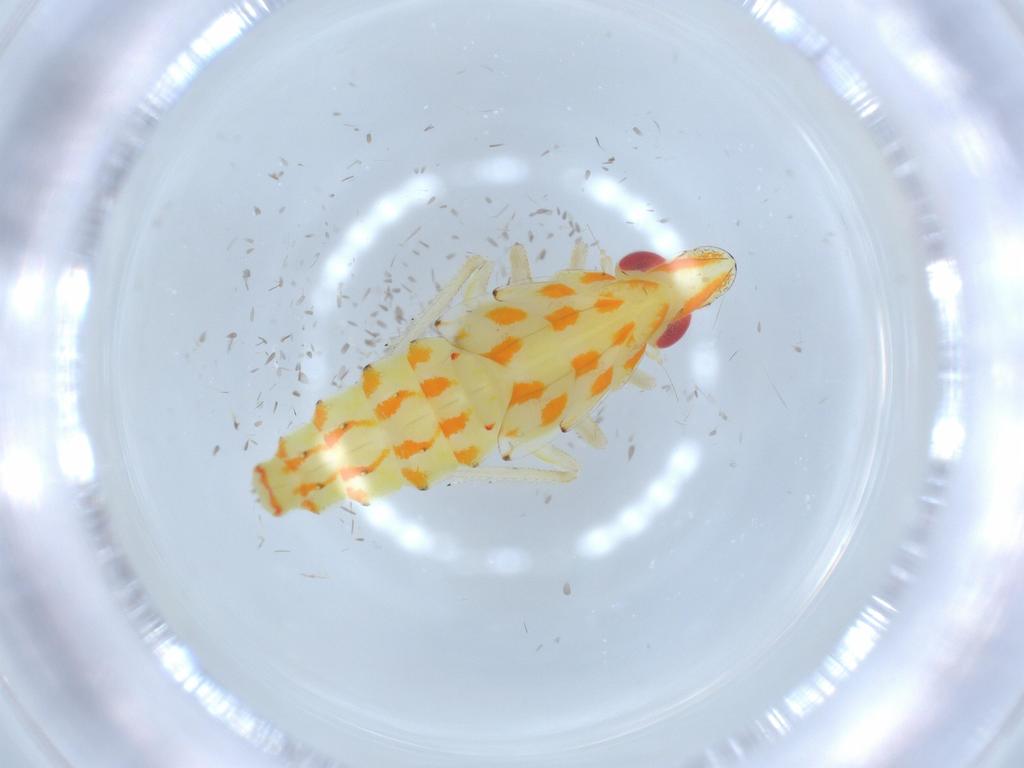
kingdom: Animalia
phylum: Arthropoda
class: Insecta
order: Hemiptera
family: Tropiduchidae
